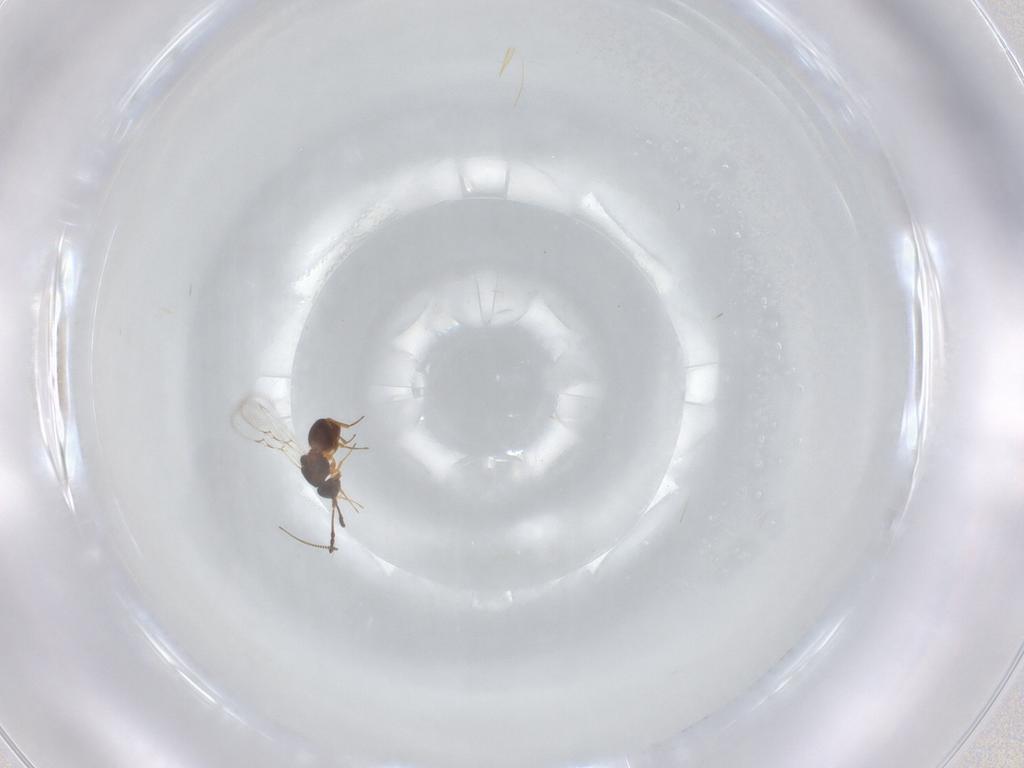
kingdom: Animalia
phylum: Arthropoda
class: Insecta
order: Hymenoptera
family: Figitidae
